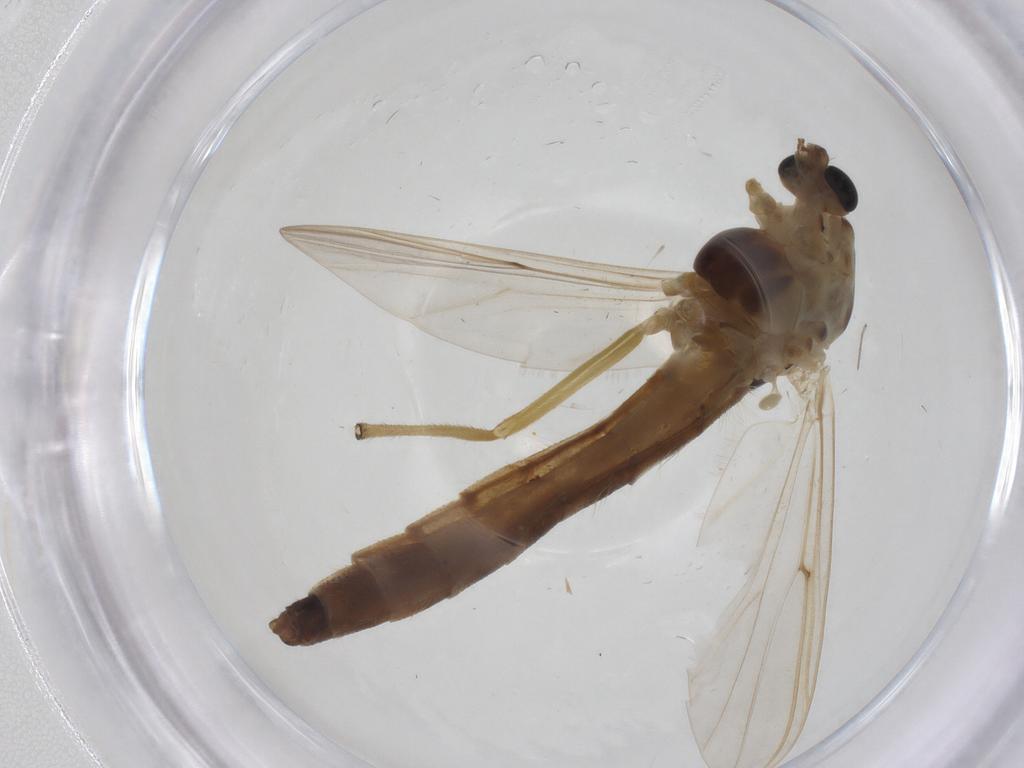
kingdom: Animalia
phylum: Arthropoda
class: Insecta
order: Diptera
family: Chironomidae
